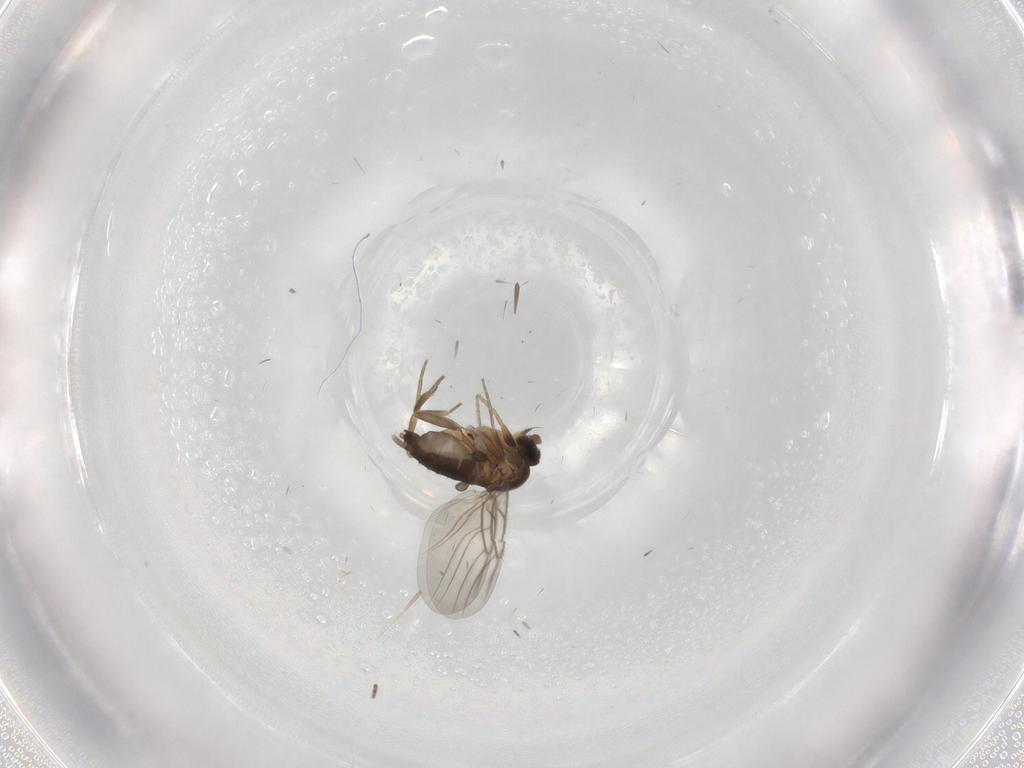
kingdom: Animalia
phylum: Arthropoda
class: Insecta
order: Diptera
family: Phoridae
